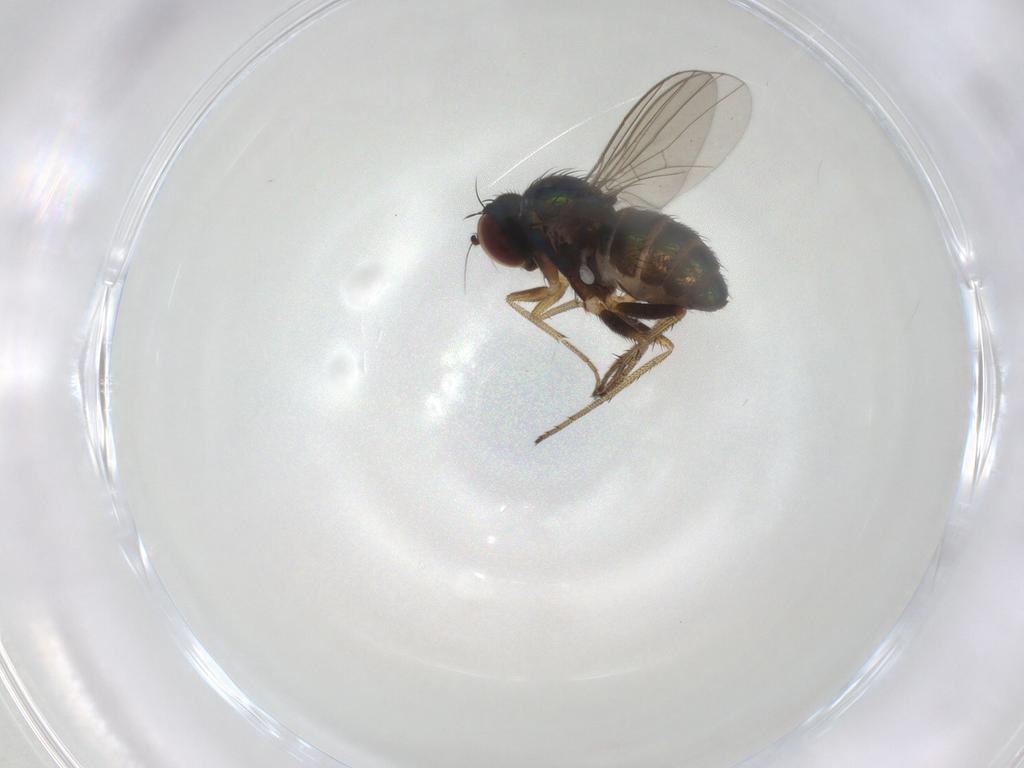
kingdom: Animalia
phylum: Arthropoda
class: Insecta
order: Diptera
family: Dolichopodidae
